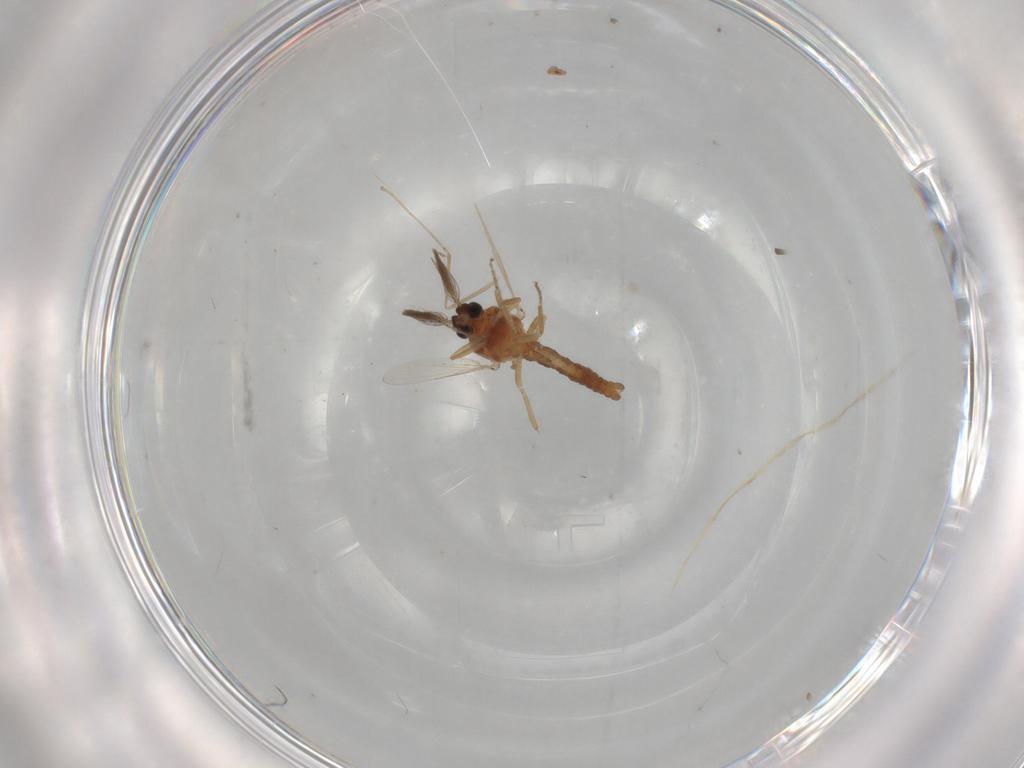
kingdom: Animalia
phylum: Arthropoda
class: Insecta
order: Diptera
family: Ceratopogonidae
